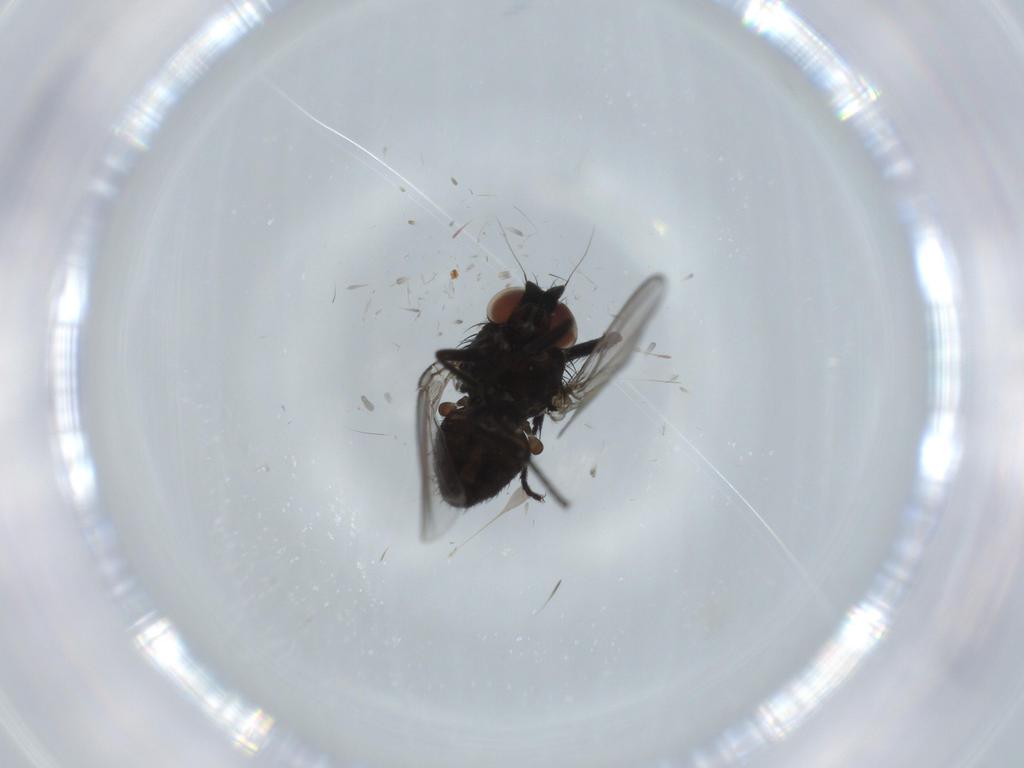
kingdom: Animalia
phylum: Arthropoda
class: Insecta
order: Diptera
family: Milichiidae
